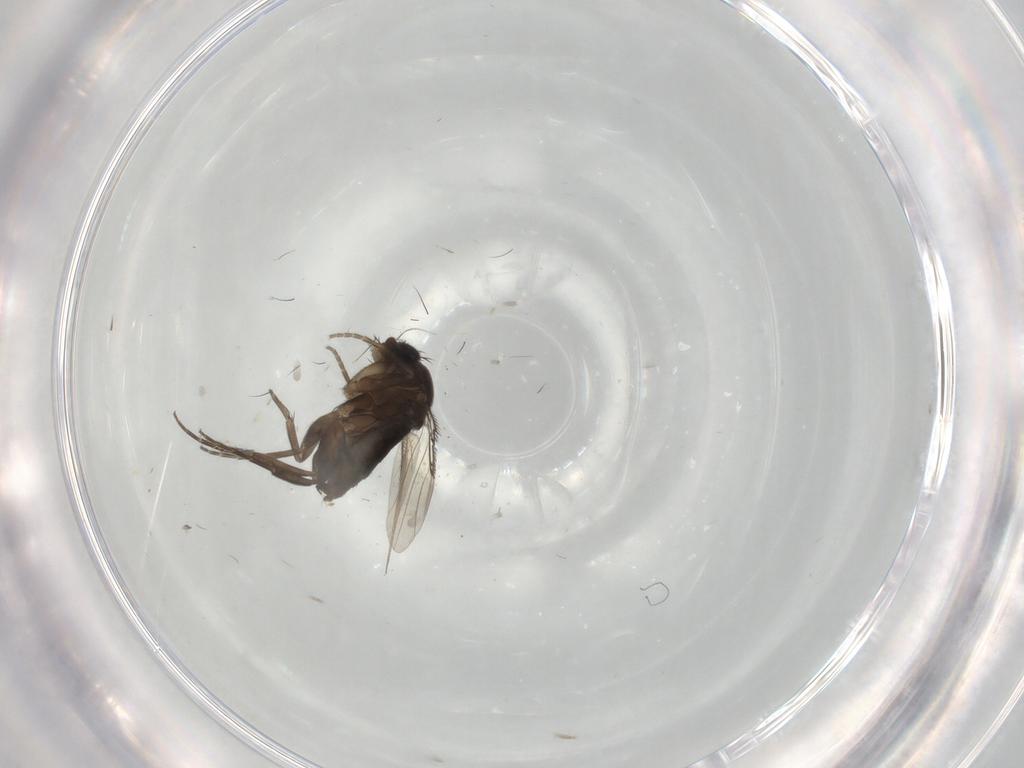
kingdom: Animalia
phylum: Arthropoda
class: Insecta
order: Diptera
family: Phoridae
